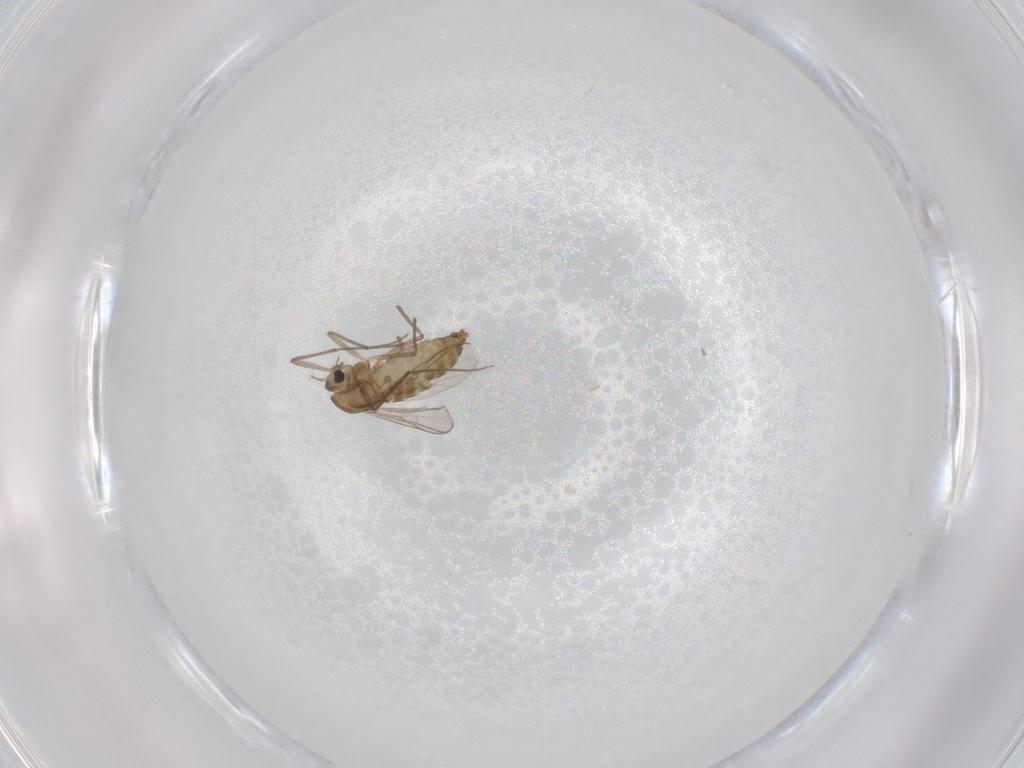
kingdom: Animalia
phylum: Arthropoda
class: Insecta
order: Diptera
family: Chironomidae
